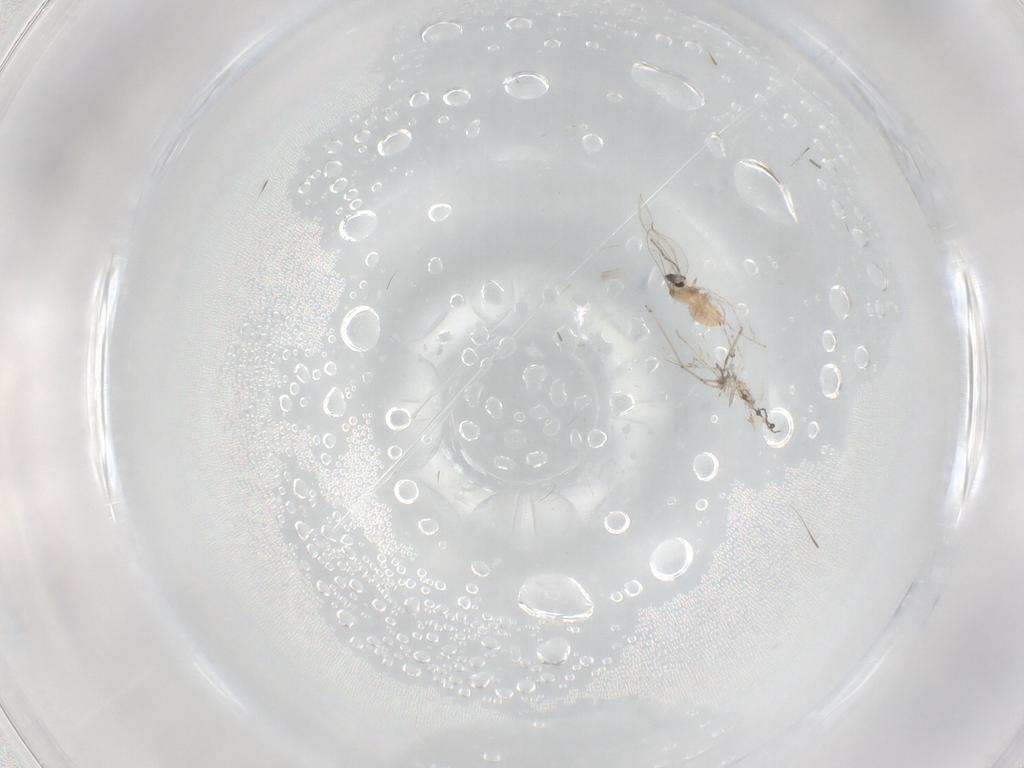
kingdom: Animalia
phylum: Arthropoda
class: Insecta
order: Diptera
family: Cecidomyiidae
